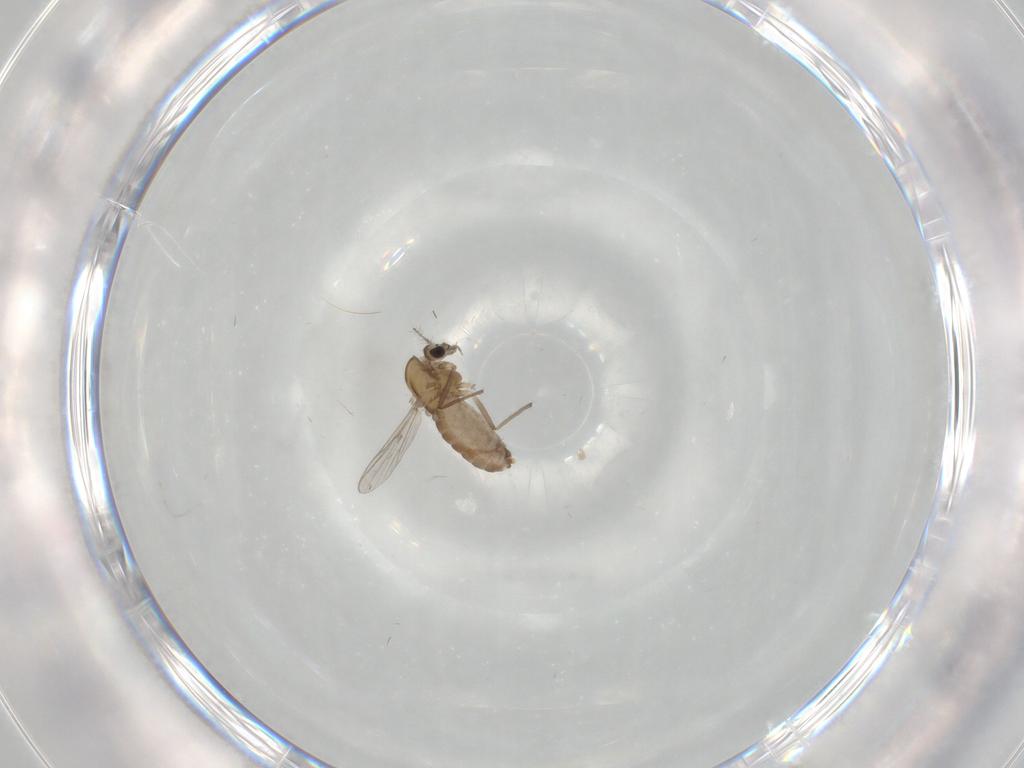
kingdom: Animalia
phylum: Arthropoda
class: Insecta
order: Diptera
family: Chironomidae
